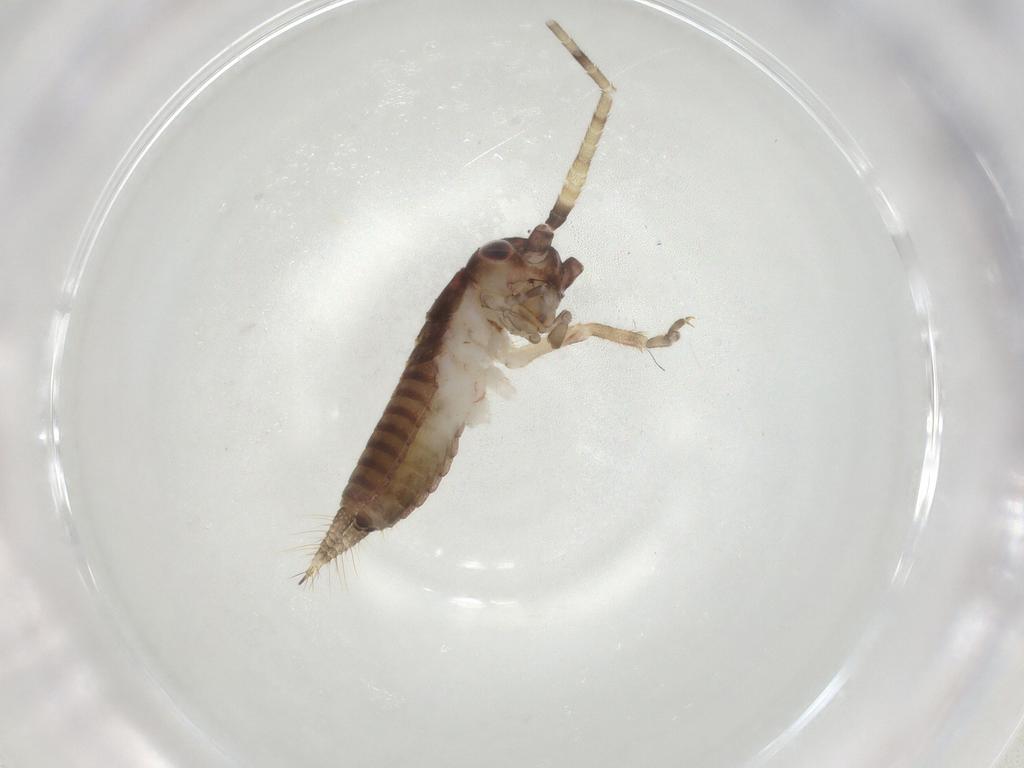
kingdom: Animalia
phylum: Arthropoda
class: Insecta
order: Orthoptera
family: Gryllidae
